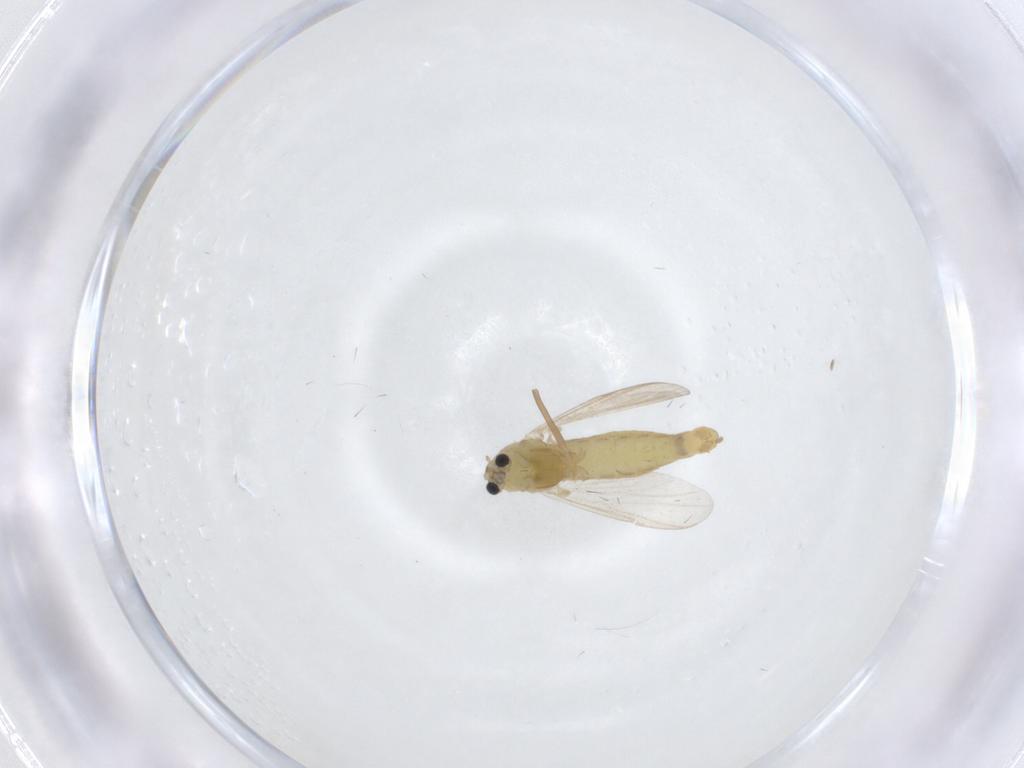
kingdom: Animalia
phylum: Arthropoda
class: Insecta
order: Diptera
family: Chironomidae
